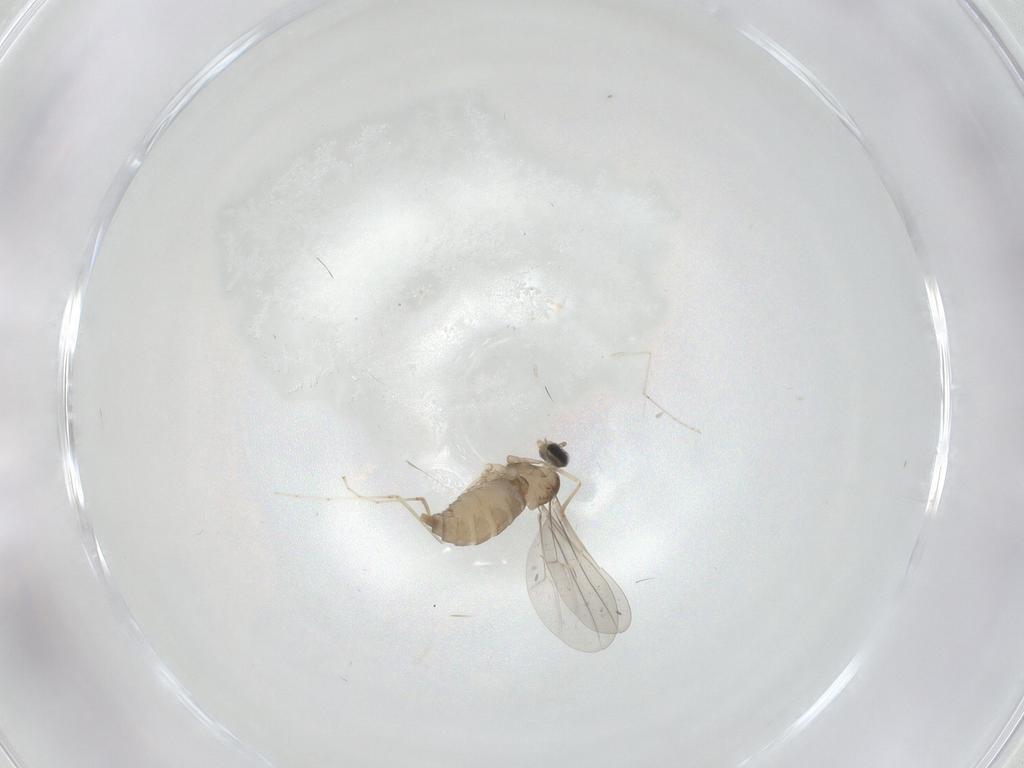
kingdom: Animalia
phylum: Arthropoda
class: Insecta
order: Diptera
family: Cecidomyiidae
